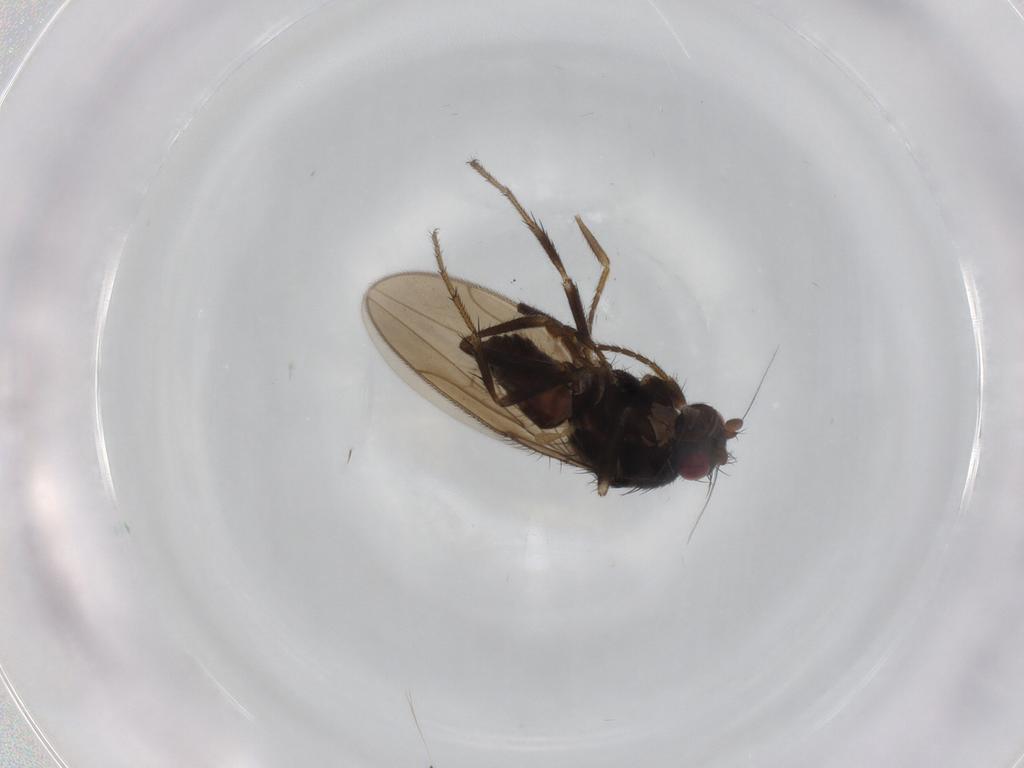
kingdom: Animalia
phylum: Arthropoda
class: Insecta
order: Diptera
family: Sphaeroceridae
